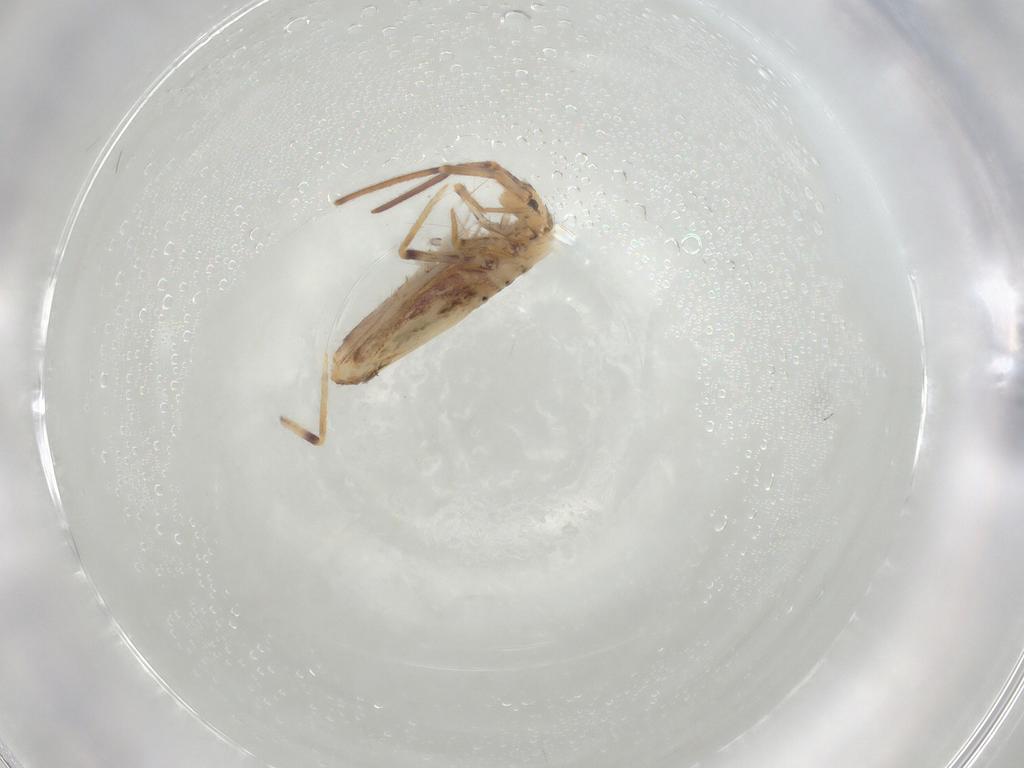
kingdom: Animalia
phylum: Arthropoda
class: Collembola
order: Poduromorpha
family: Hypogastruridae
